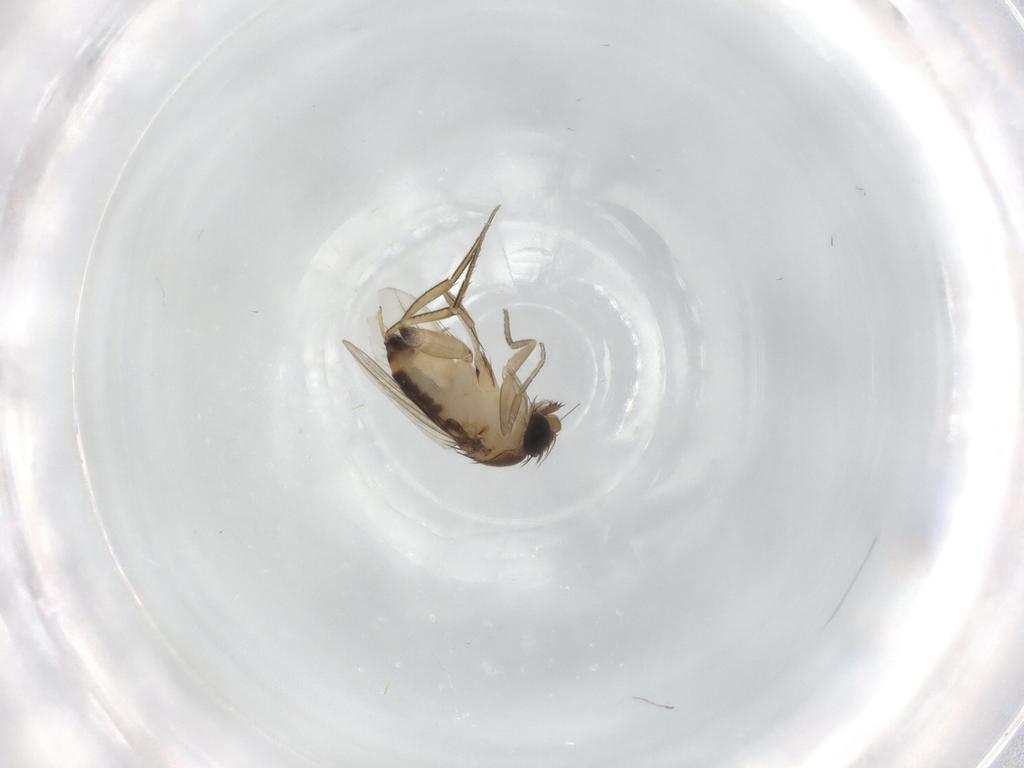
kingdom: Animalia
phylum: Arthropoda
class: Insecta
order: Diptera
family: Phoridae
